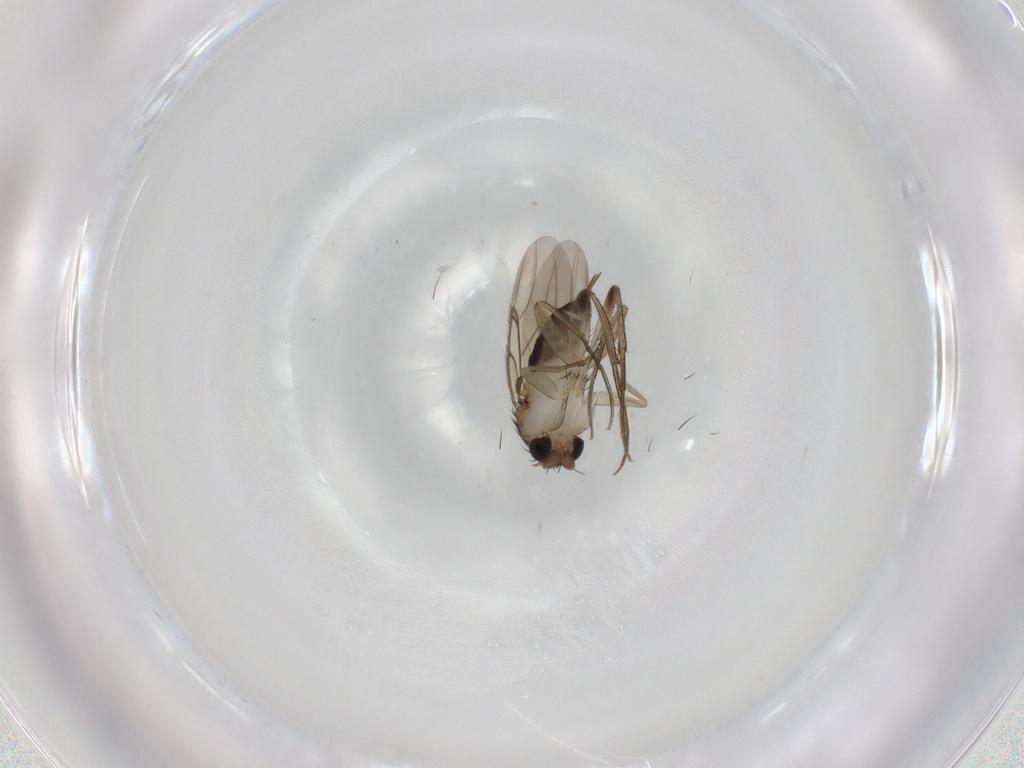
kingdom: Animalia
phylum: Arthropoda
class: Insecta
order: Diptera
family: Phoridae
